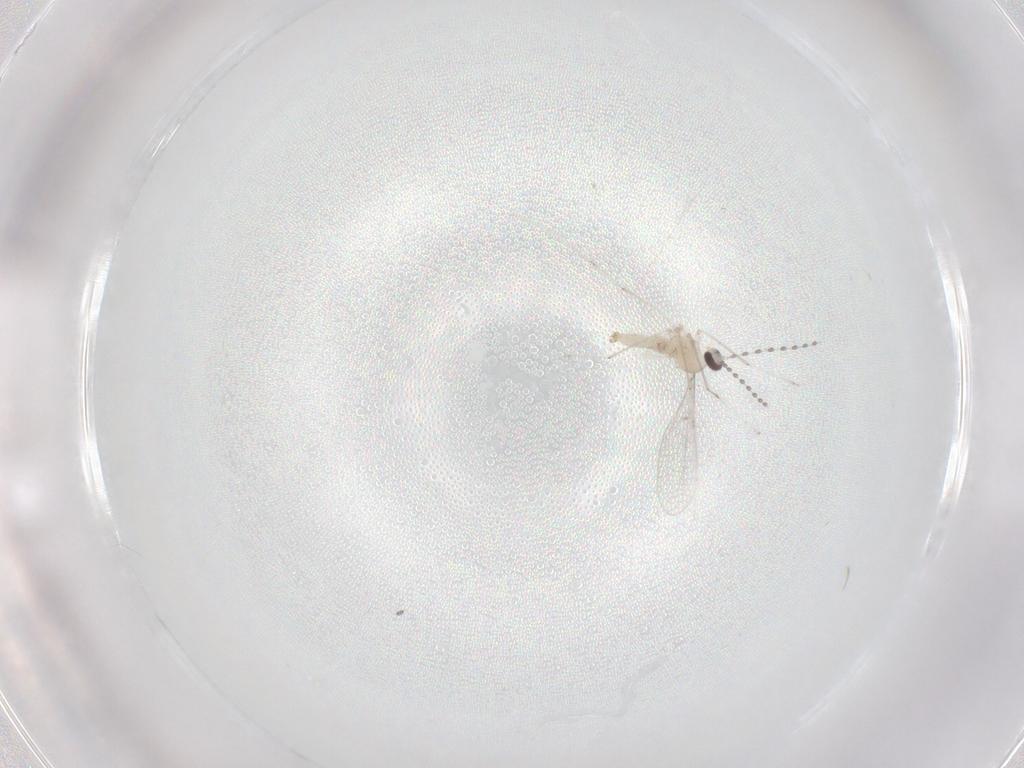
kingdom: Animalia
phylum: Arthropoda
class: Insecta
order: Diptera
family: Cecidomyiidae
